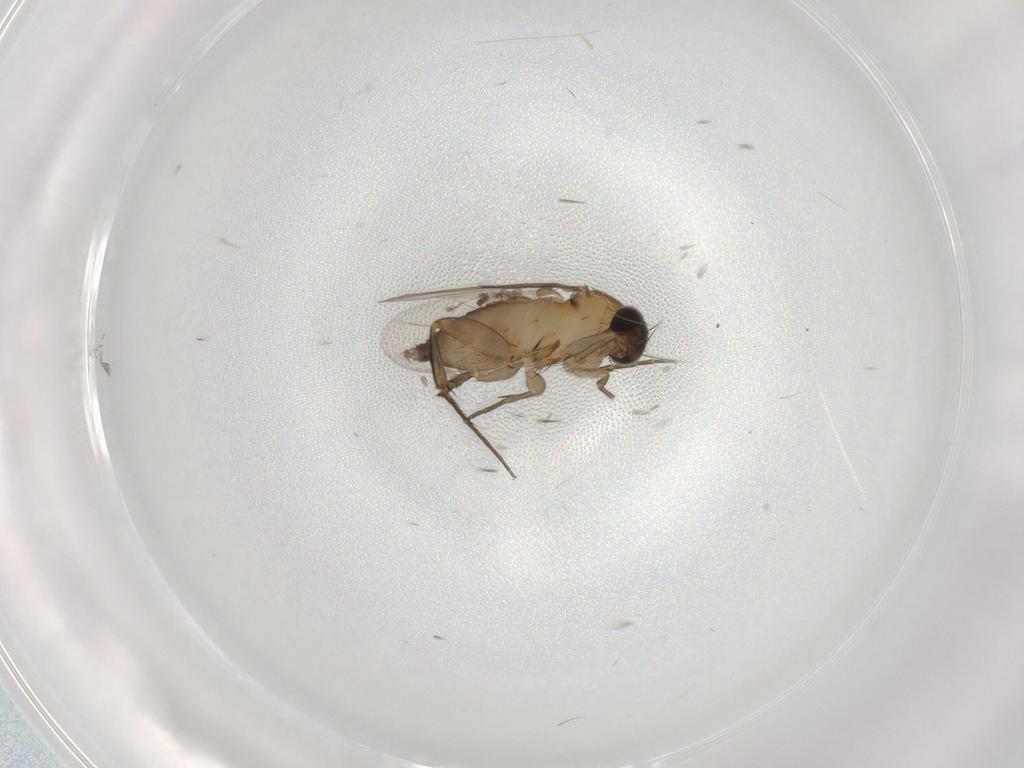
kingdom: Animalia
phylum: Arthropoda
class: Insecta
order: Diptera
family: Phoridae
